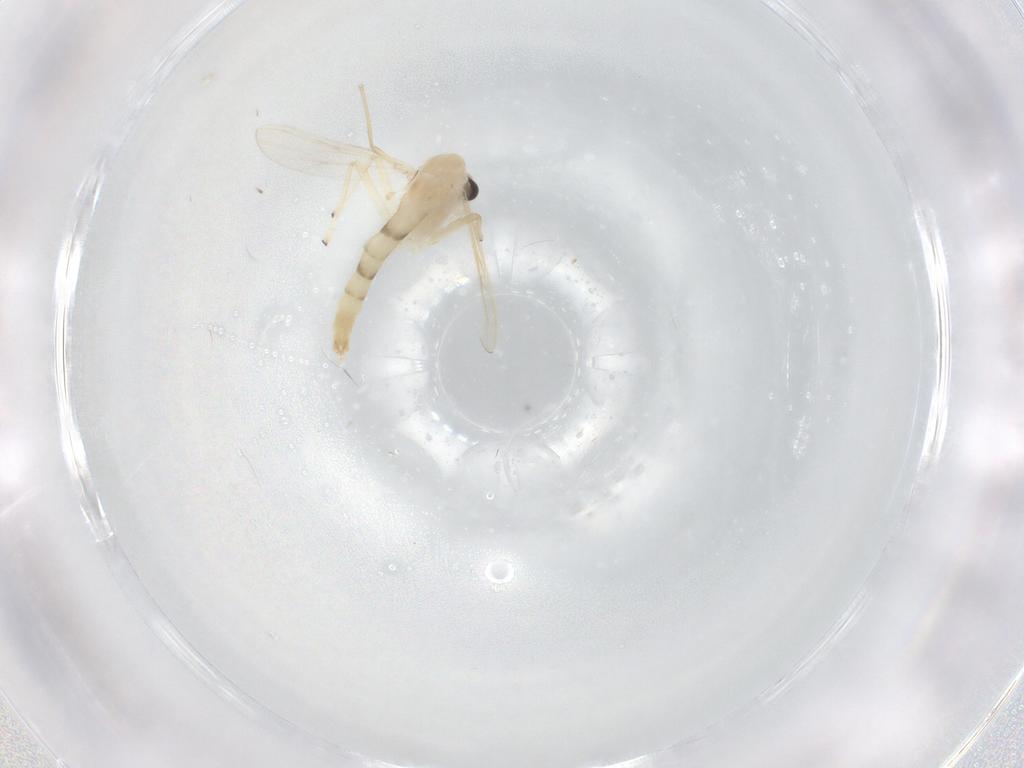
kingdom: Animalia
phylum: Arthropoda
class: Insecta
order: Diptera
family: Chironomidae
